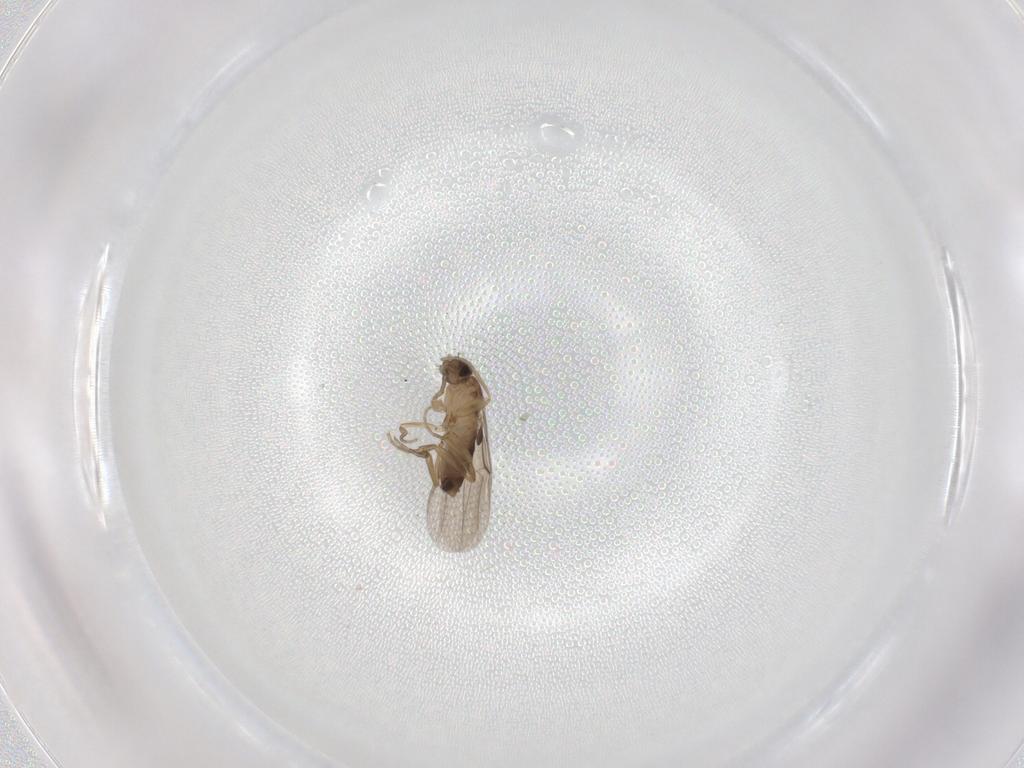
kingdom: Animalia
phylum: Arthropoda
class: Insecta
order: Diptera
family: Phoridae
